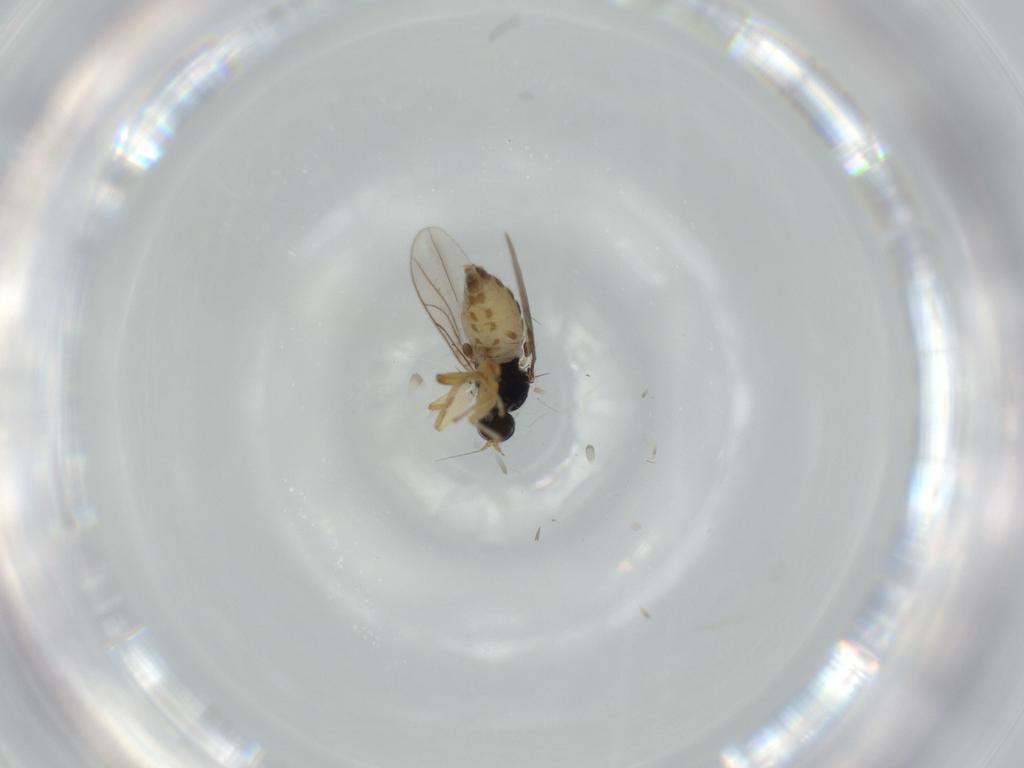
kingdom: Animalia
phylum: Arthropoda
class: Insecta
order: Diptera
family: Hybotidae
